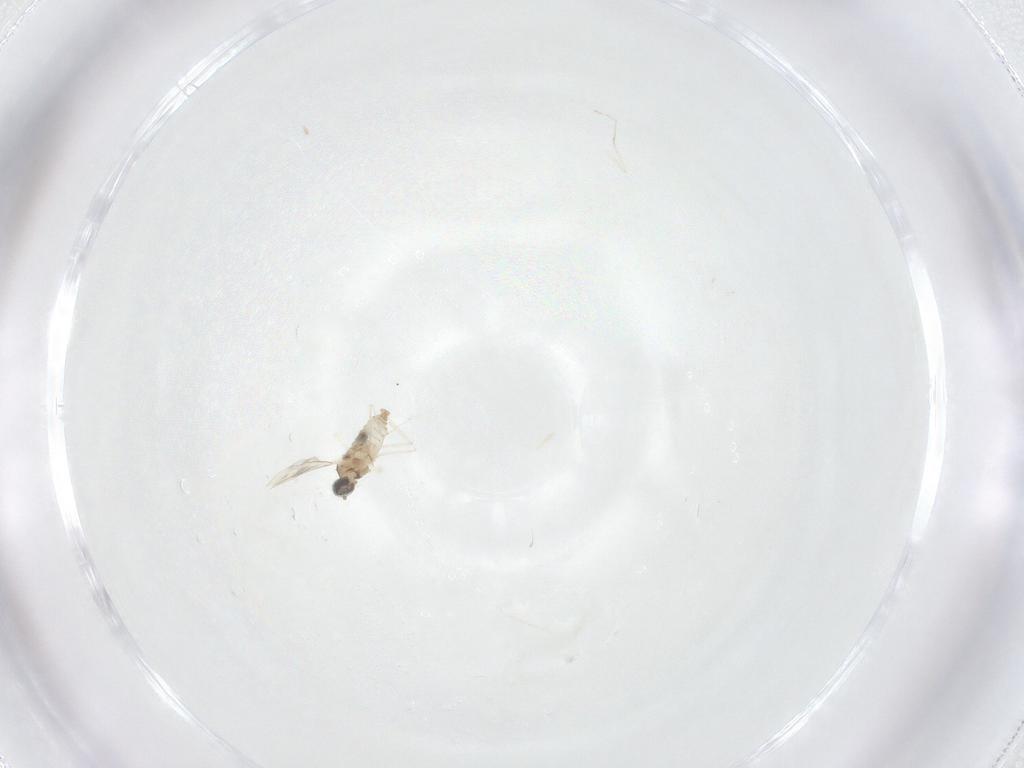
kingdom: Animalia
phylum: Arthropoda
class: Insecta
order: Diptera
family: Cecidomyiidae
